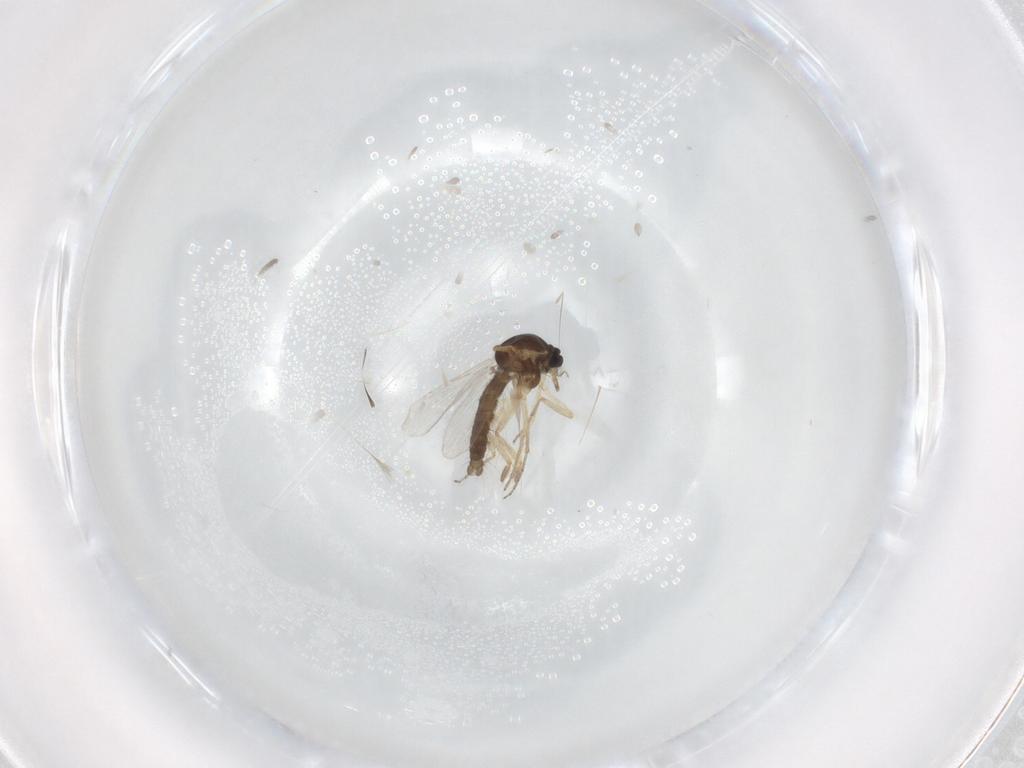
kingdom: Animalia
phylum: Arthropoda
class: Insecta
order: Diptera
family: Ceratopogonidae
